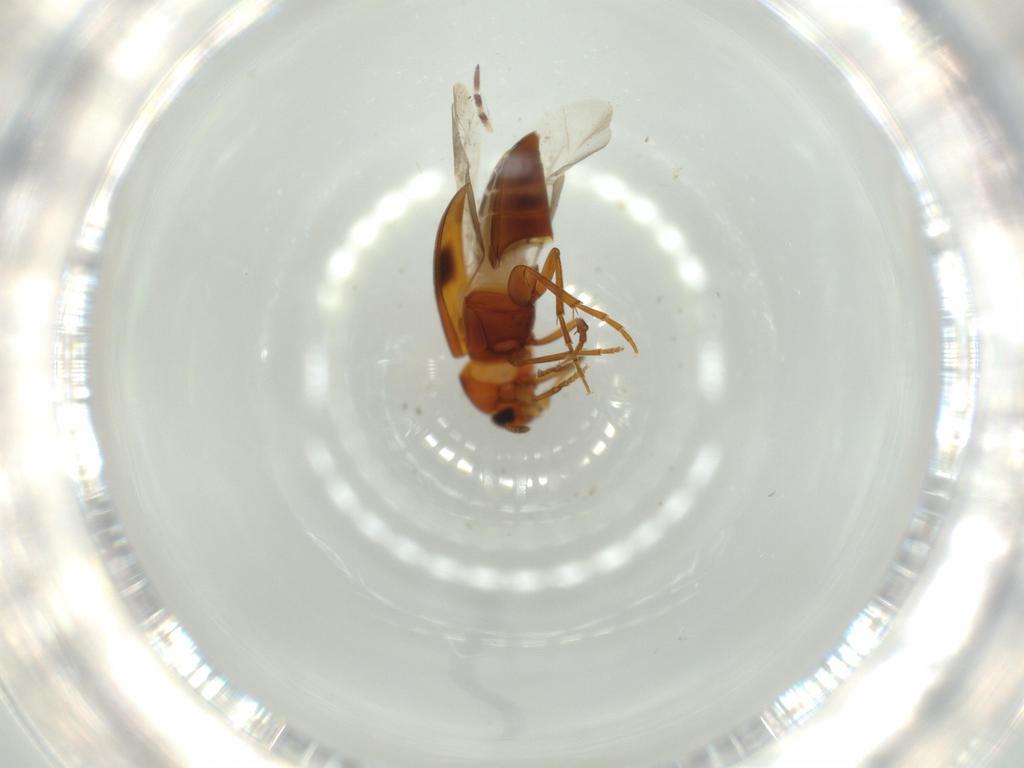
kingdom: Animalia
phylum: Arthropoda
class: Insecta
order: Coleoptera
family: Scraptiidae
